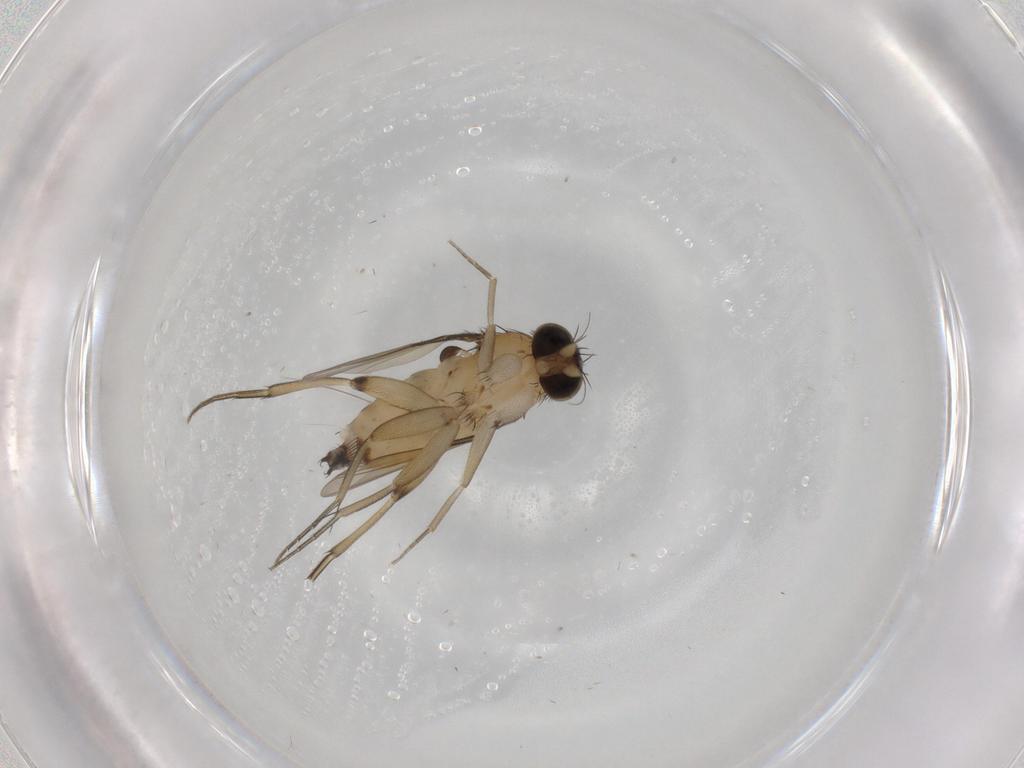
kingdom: Animalia
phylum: Arthropoda
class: Insecta
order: Diptera
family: Phoridae
